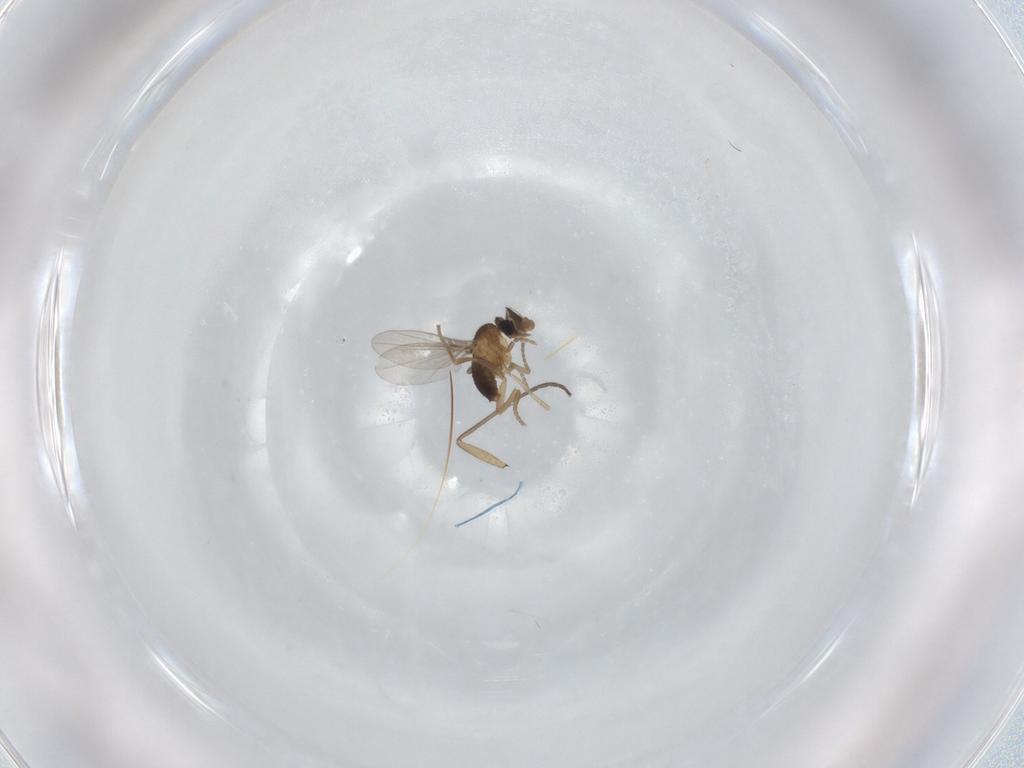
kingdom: Animalia
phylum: Arthropoda
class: Insecta
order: Diptera
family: Phoridae
